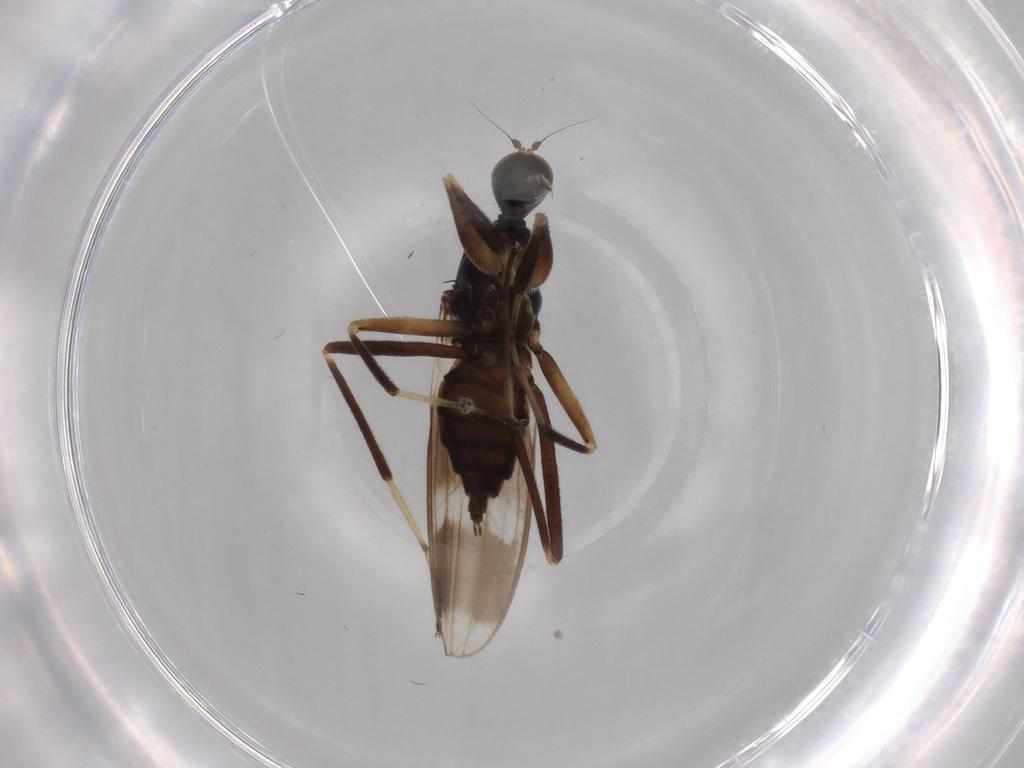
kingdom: Animalia
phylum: Arthropoda
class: Insecta
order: Diptera
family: Hybotidae
